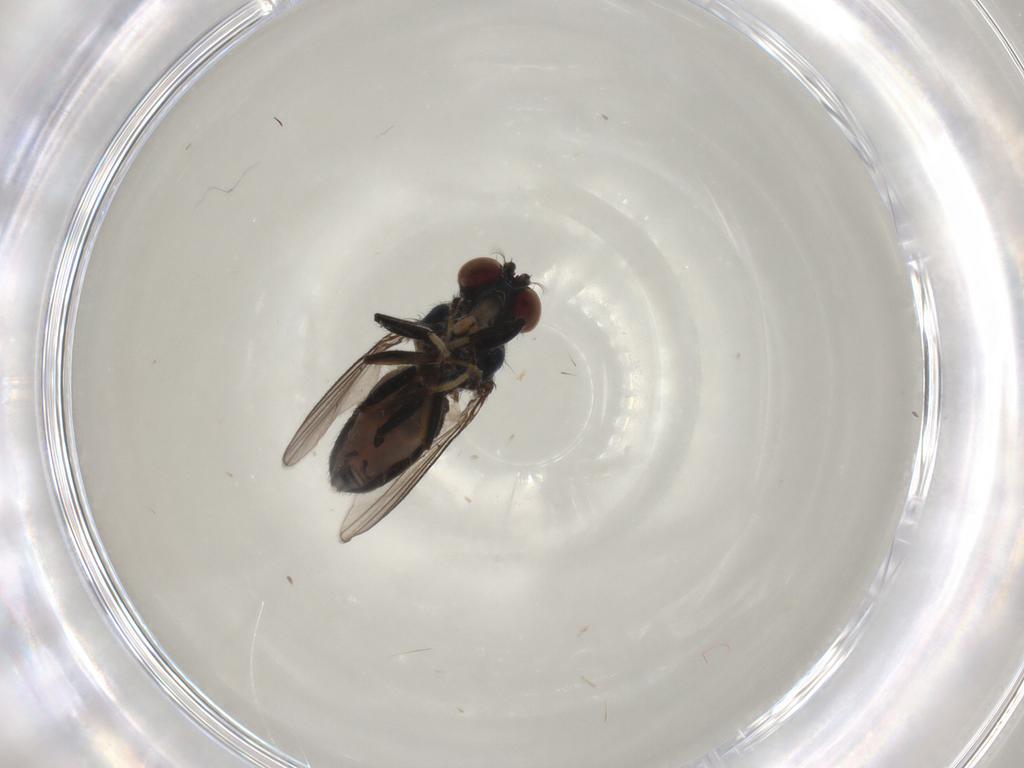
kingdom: Animalia
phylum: Arthropoda
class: Insecta
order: Diptera
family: Ephydridae
